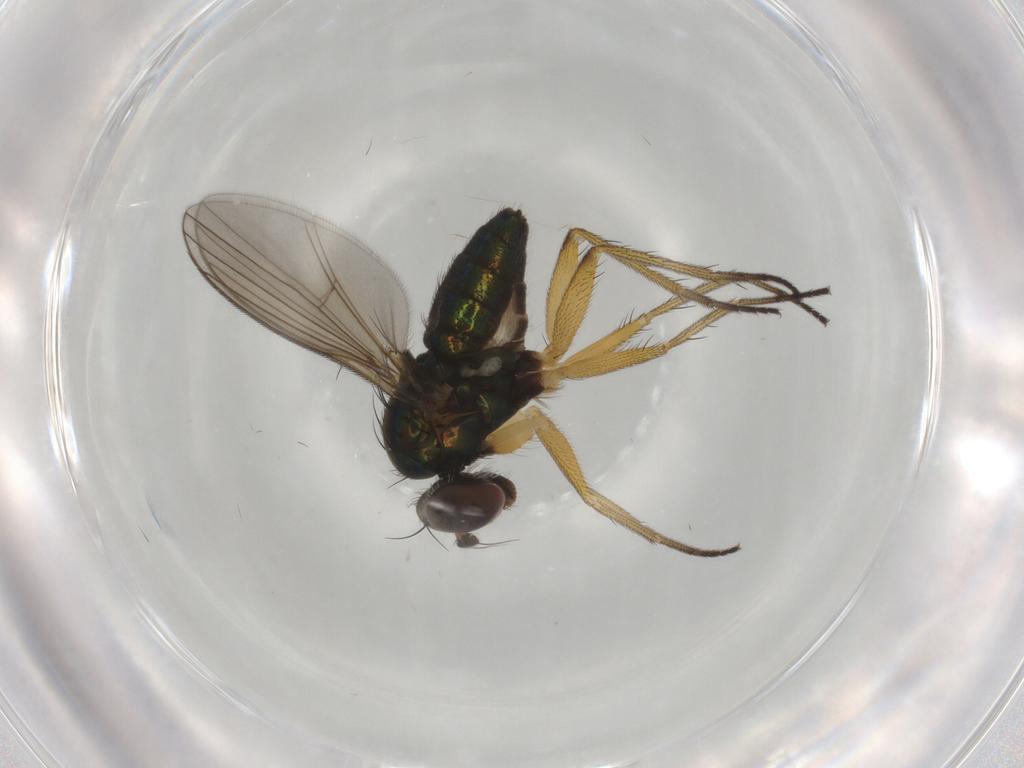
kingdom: Animalia
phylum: Arthropoda
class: Insecta
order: Diptera
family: Dolichopodidae
